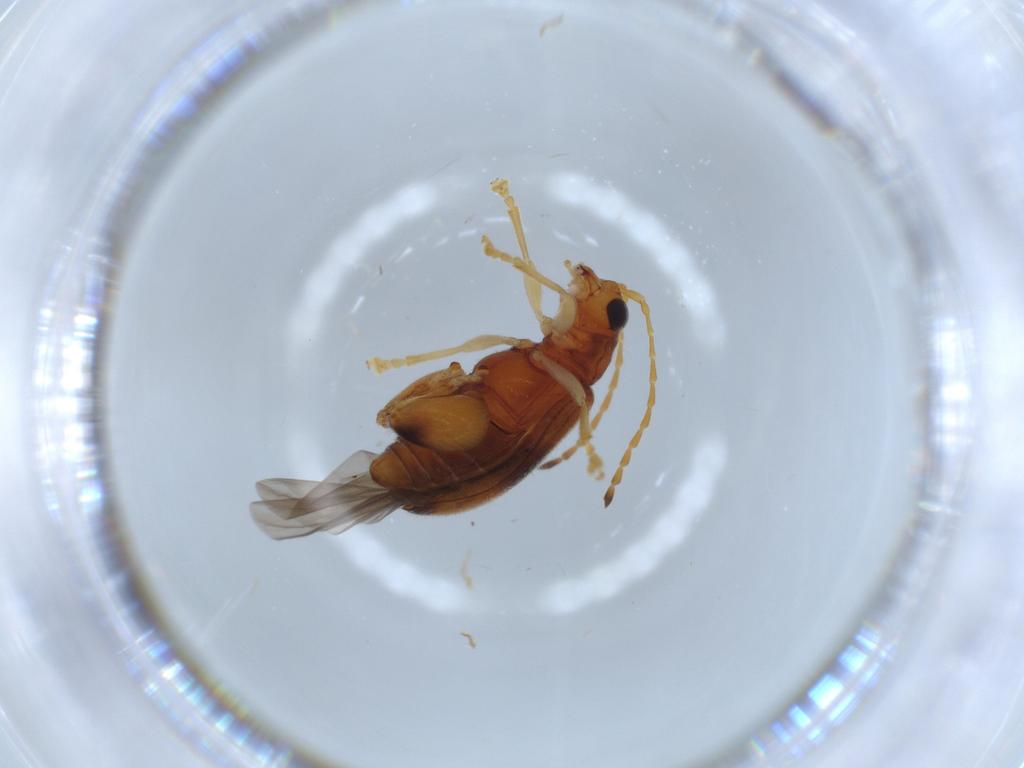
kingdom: Animalia
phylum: Arthropoda
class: Insecta
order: Coleoptera
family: Chrysomelidae
